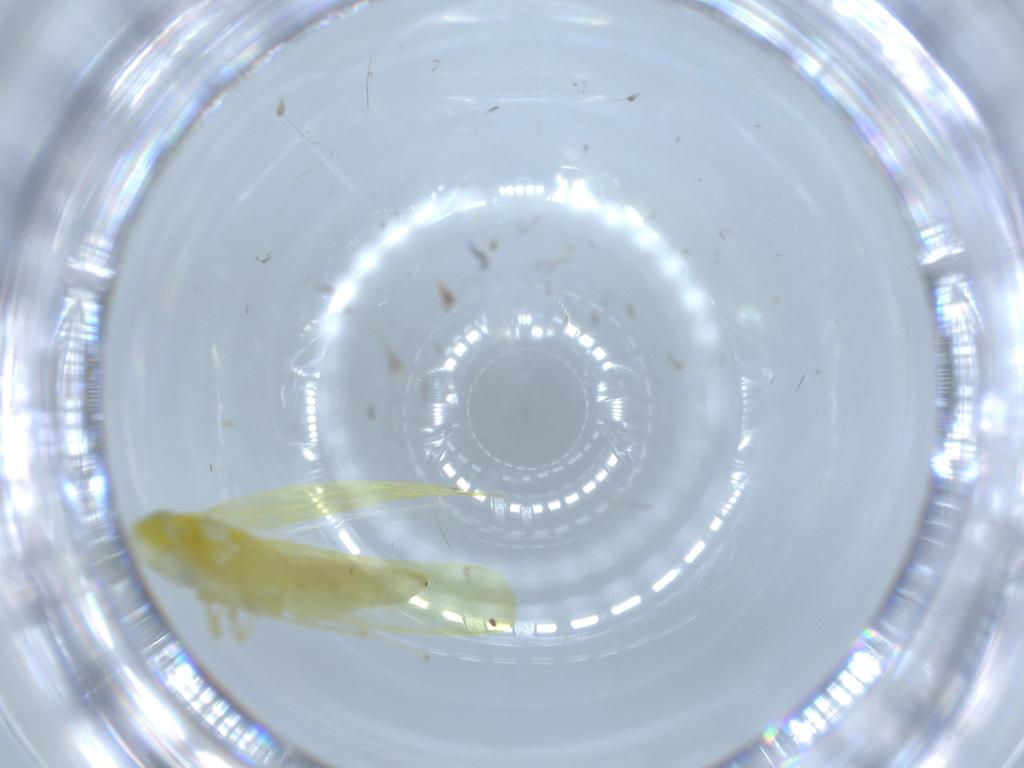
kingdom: Animalia
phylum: Arthropoda
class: Insecta
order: Hemiptera
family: Cicadellidae
